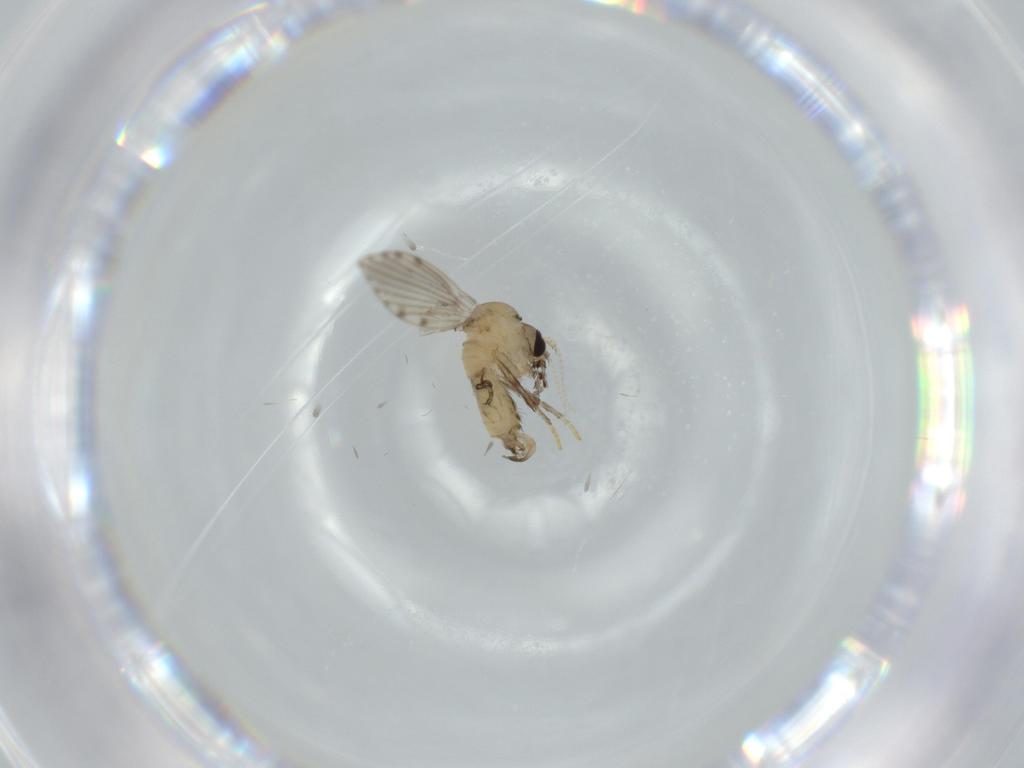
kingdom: Animalia
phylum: Arthropoda
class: Insecta
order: Diptera
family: Psychodidae
